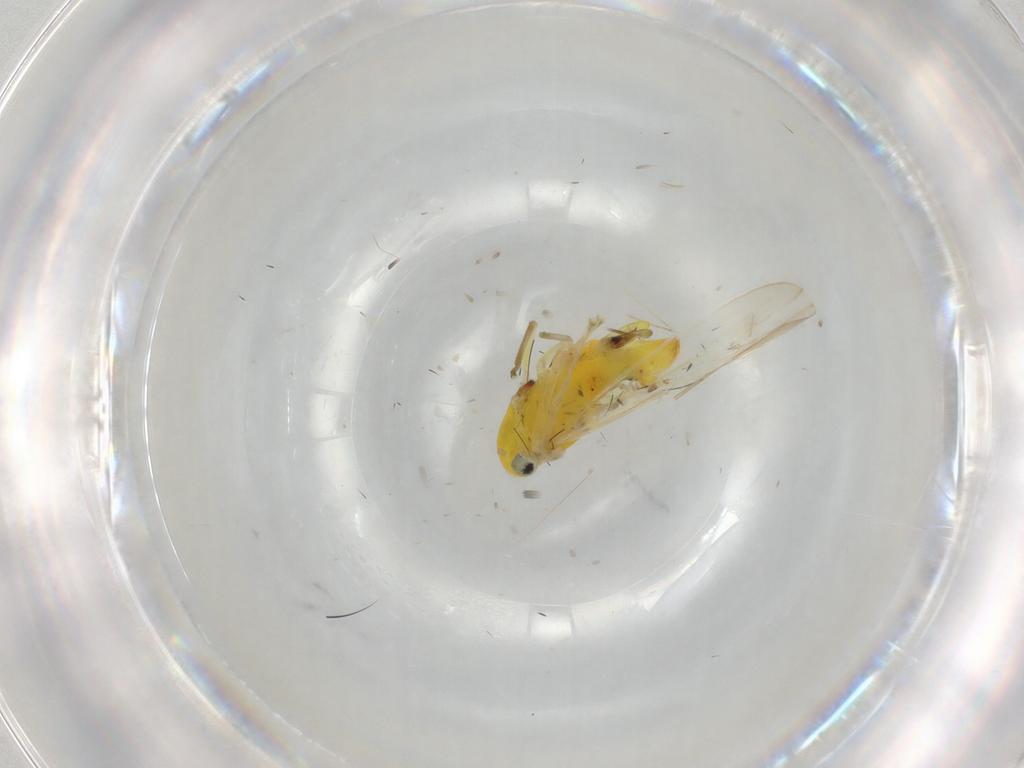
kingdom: Animalia
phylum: Arthropoda
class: Insecta
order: Hemiptera
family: Cicadellidae
